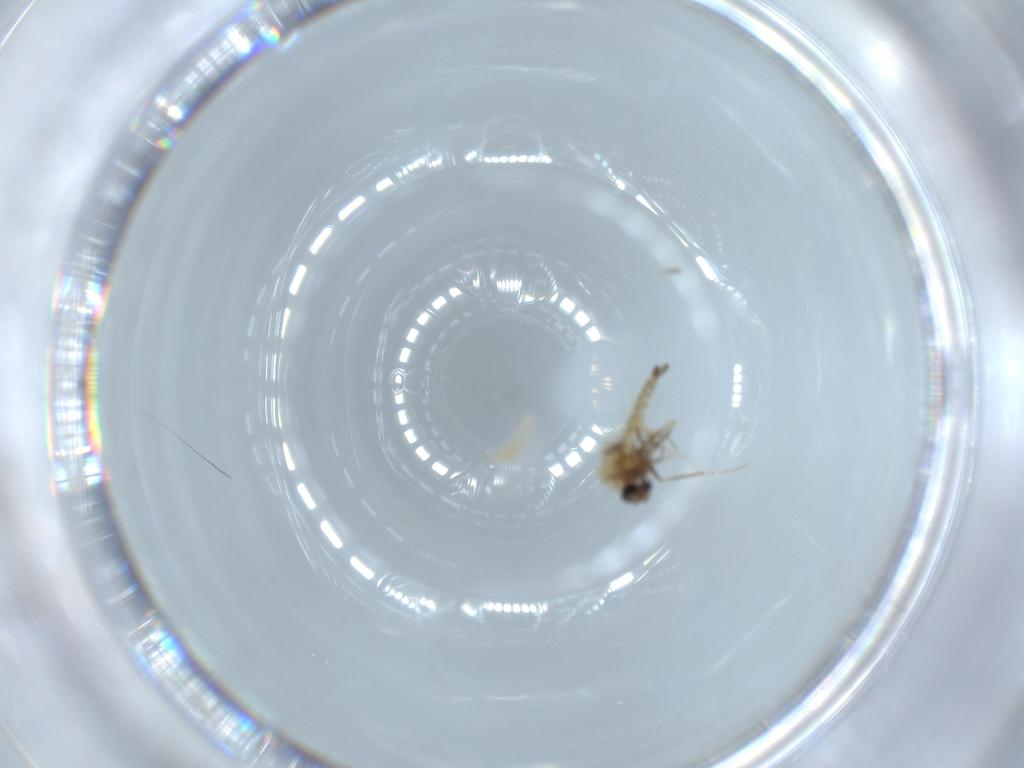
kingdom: Animalia
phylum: Arthropoda
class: Insecta
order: Diptera
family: Ceratopogonidae
